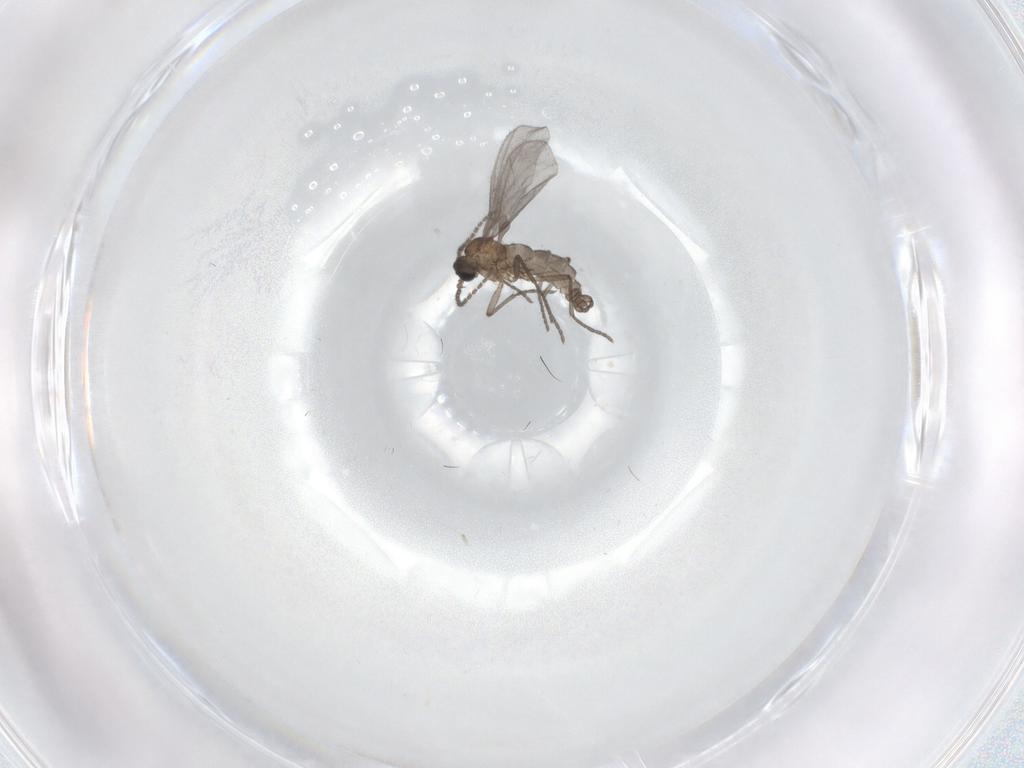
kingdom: Animalia
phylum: Arthropoda
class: Insecta
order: Diptera
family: Sciaridae
